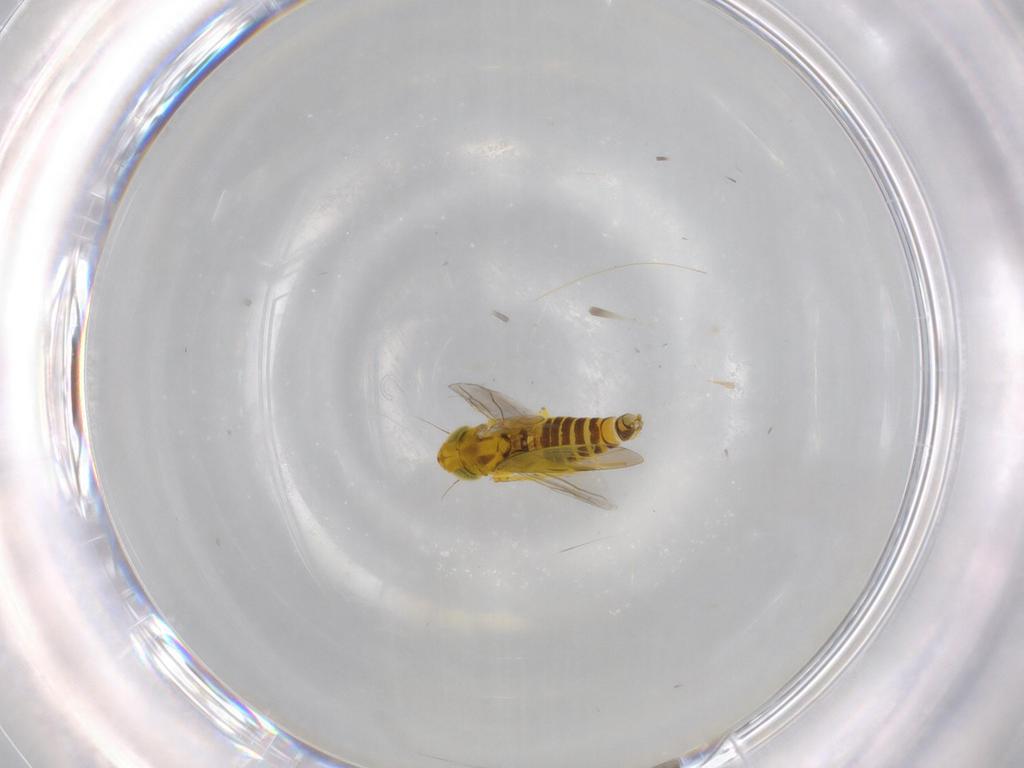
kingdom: Animalia
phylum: Arthropoda
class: Insecta
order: Hemiptera
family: Cicadellidae
